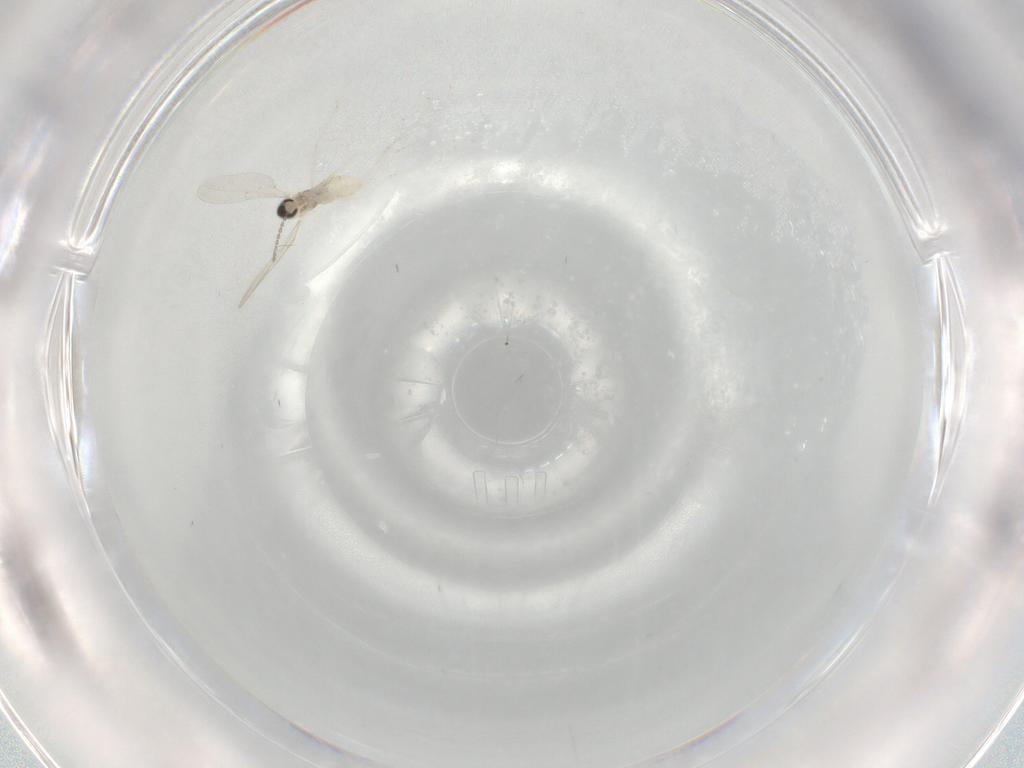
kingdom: Animalia
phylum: Arthropoda
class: Insecta
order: Diptera
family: Cecidomyiidae
